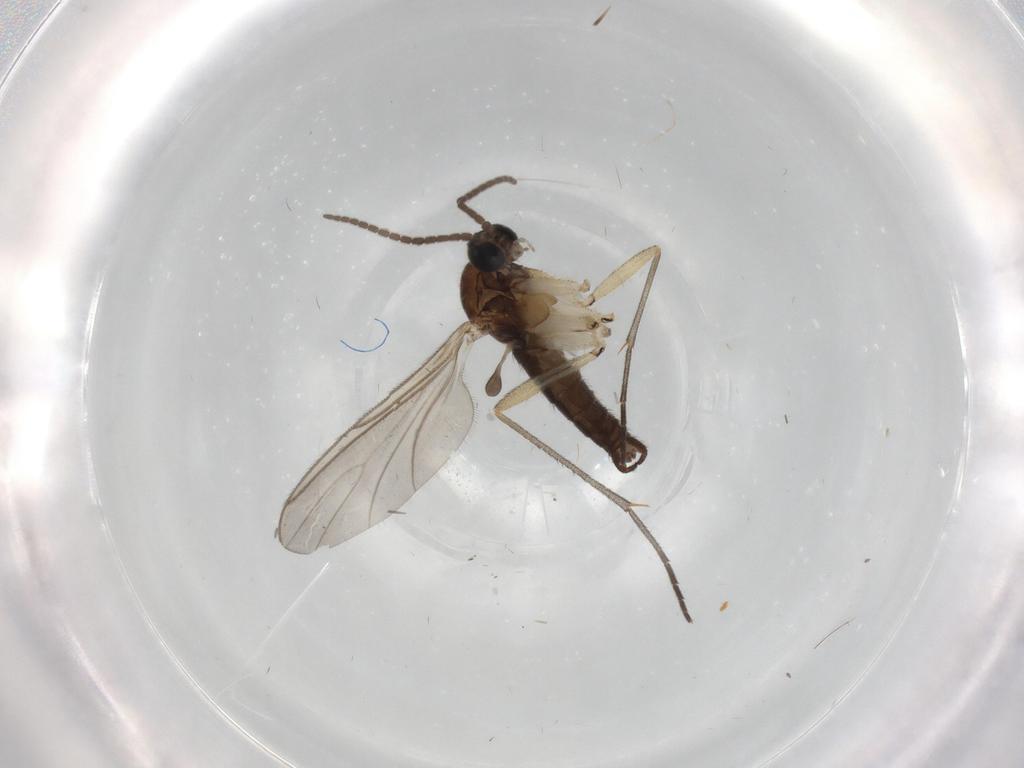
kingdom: Animalia
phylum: Arthropoda
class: Insecta
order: Diptera
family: Sciaridae
